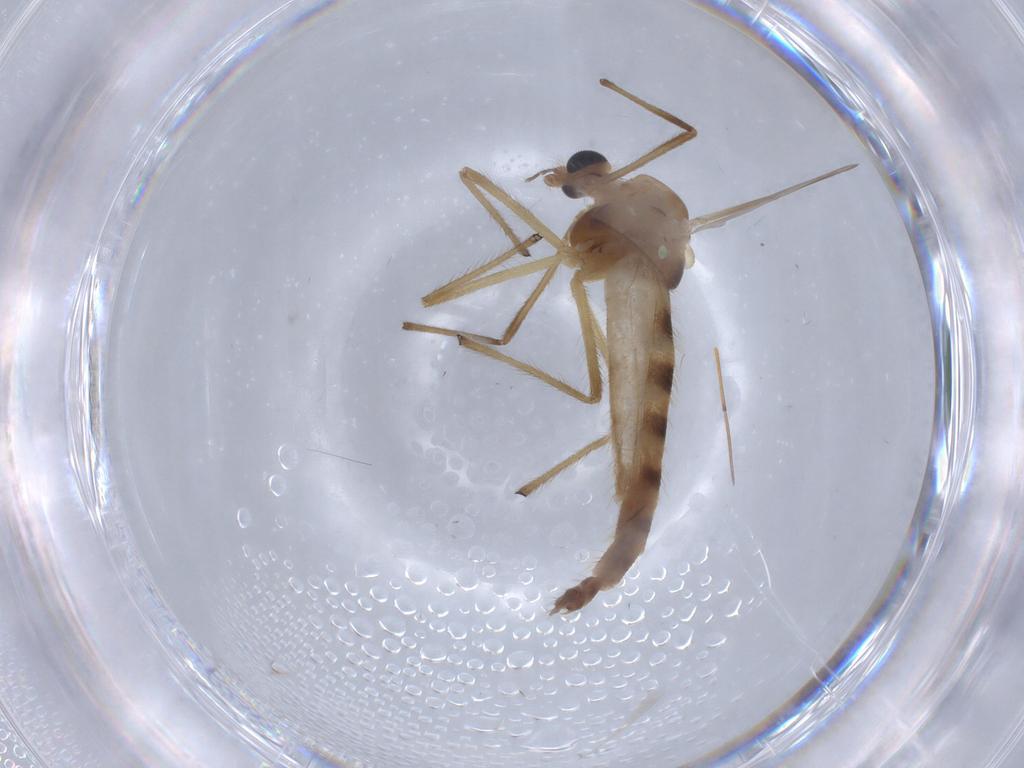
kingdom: Animalia
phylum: Arthropoda
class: Insecta
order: Diptera
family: Chironomidae
